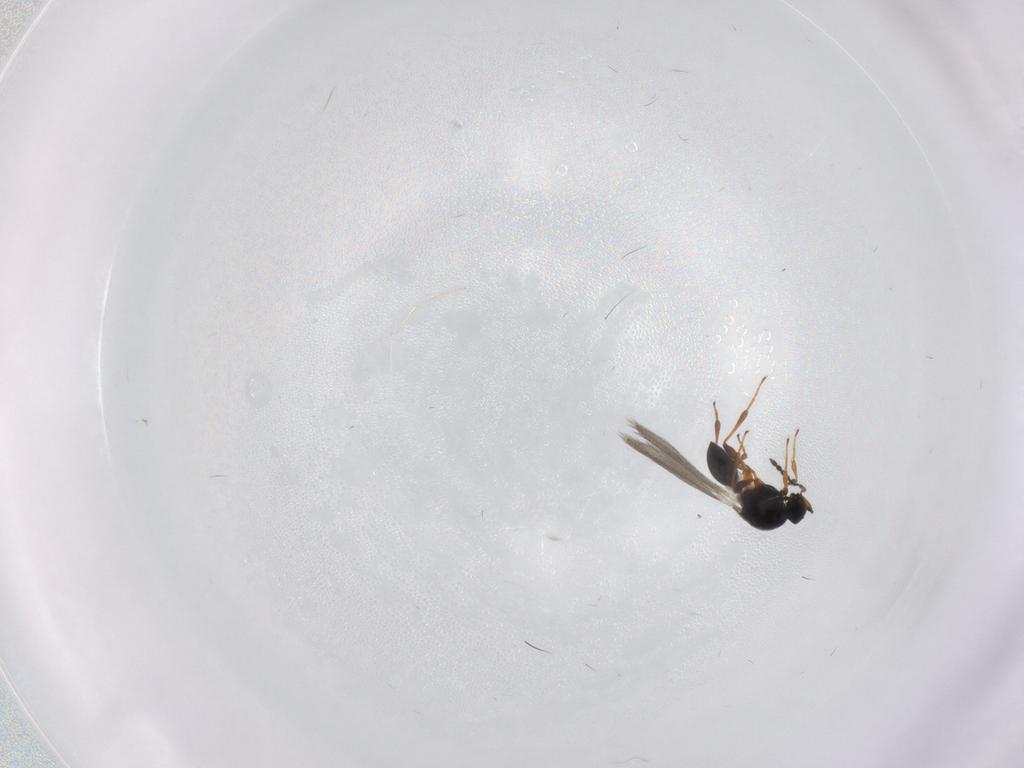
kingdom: Animalia
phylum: Arthropoda
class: Insecta
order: Hymenoptera
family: Platygastridae
